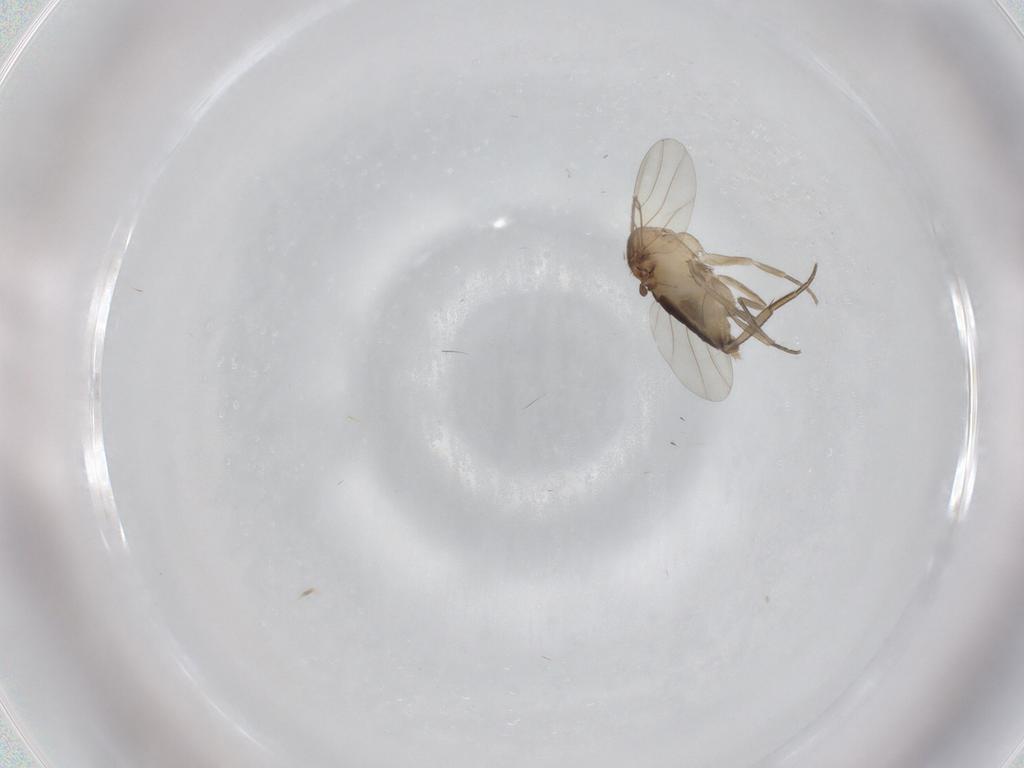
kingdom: Animalia
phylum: Arthropoda
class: Insecta
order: Diptera
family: Phoridae
